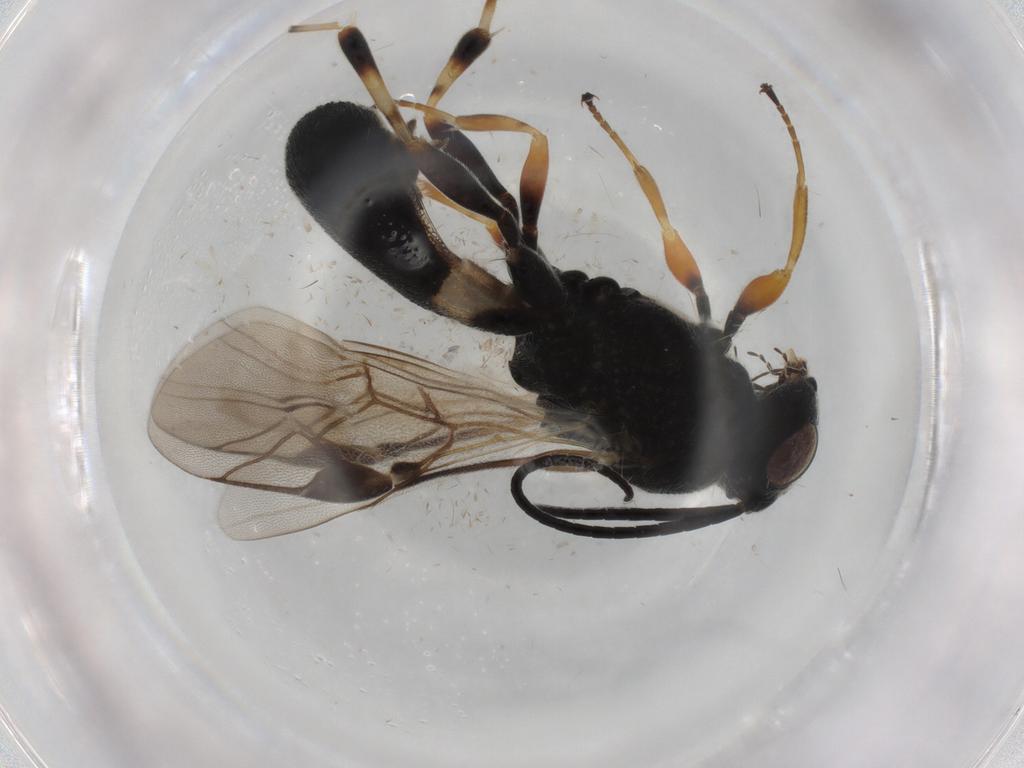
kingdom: Animalia
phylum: Arthropoda
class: Insecta
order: Hymenoptera
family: Braconidae
